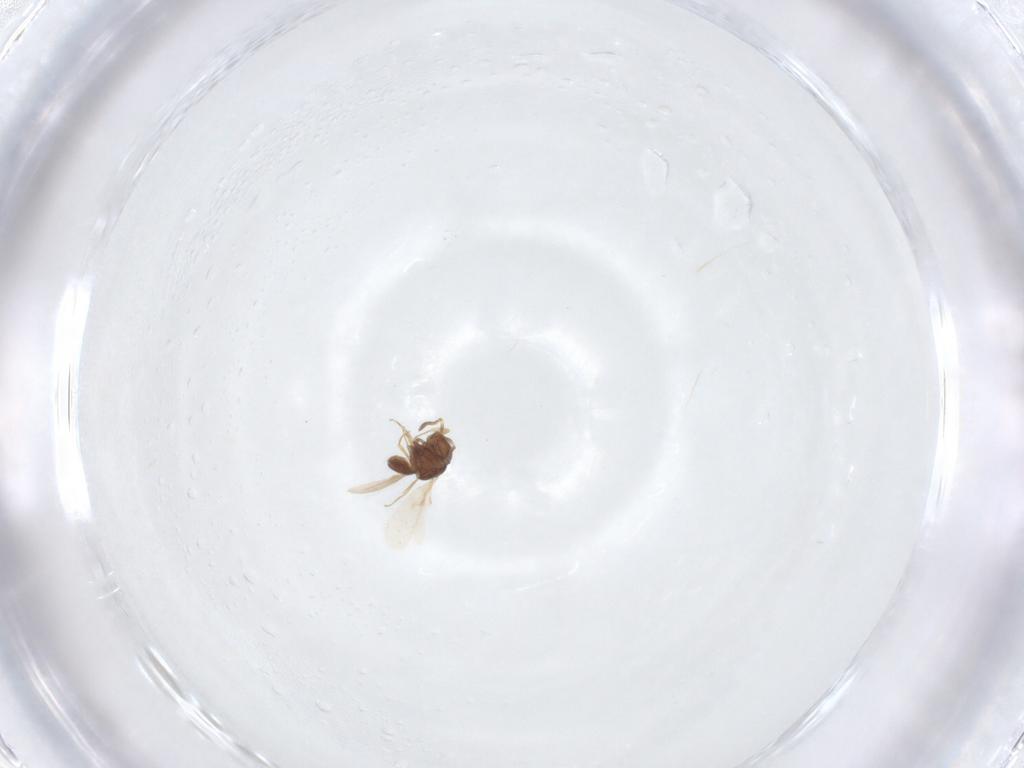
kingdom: Animalia
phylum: Arthropoda
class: Insecta
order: Hymenoptera
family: Scelionidae
